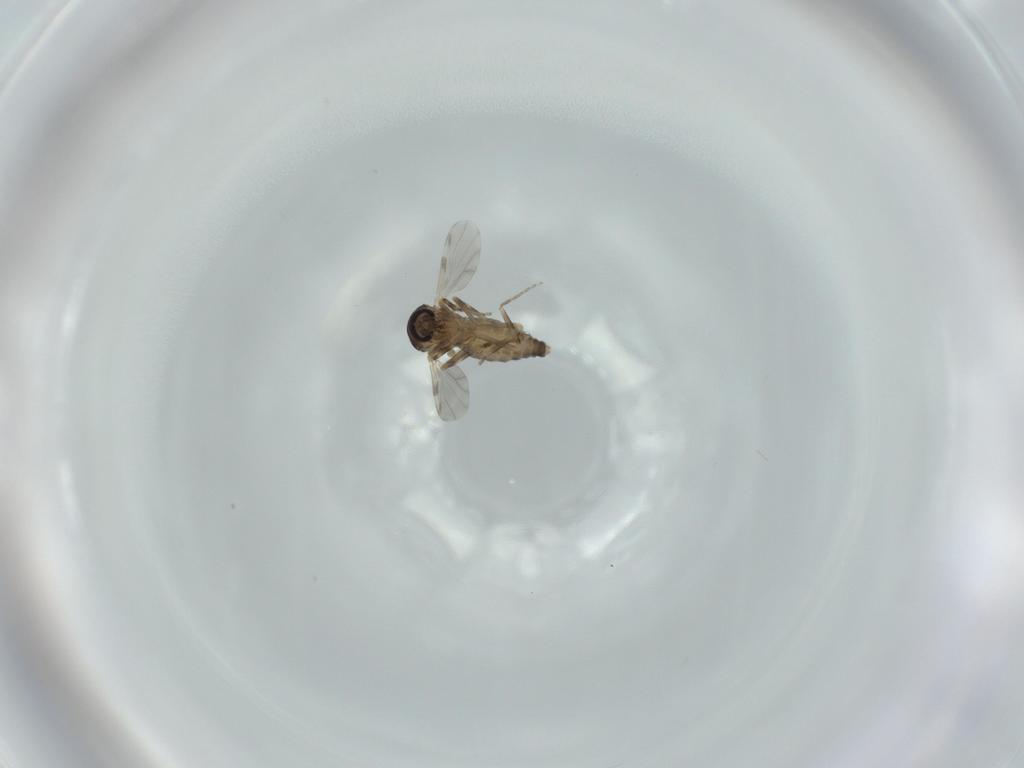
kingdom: Animalia
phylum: Arthropoda
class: Insecta
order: Diptera
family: Ceratopogonidae
